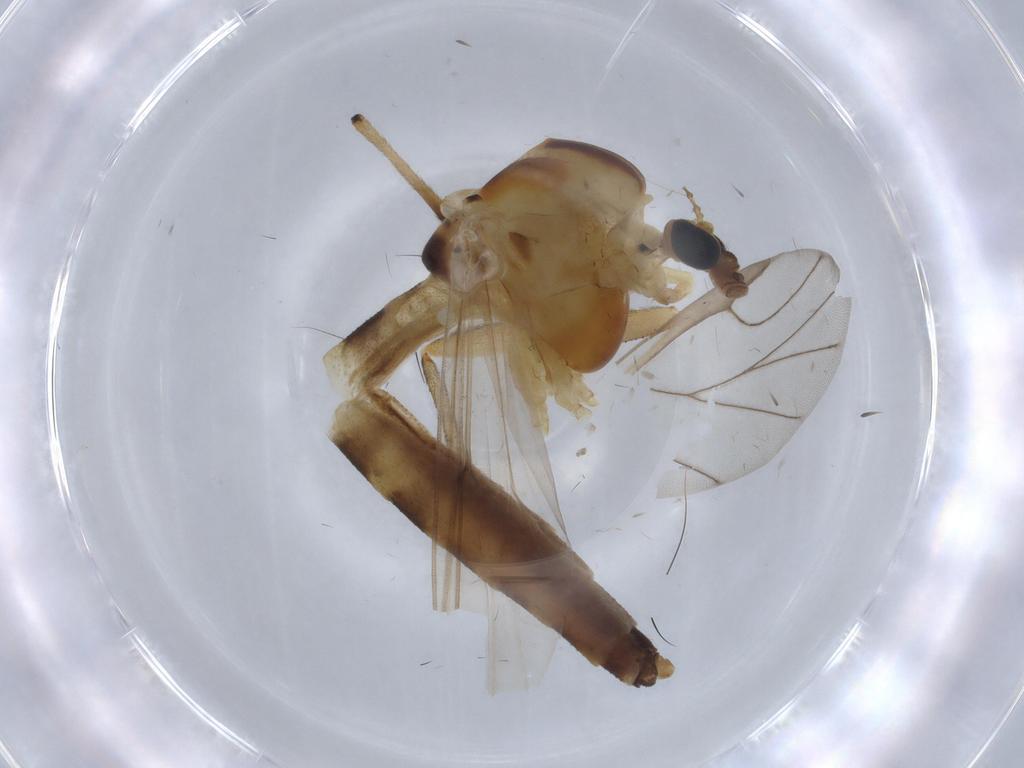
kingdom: Animalia
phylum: Arthropoda
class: Insecta
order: Diptera
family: Chironomidae
